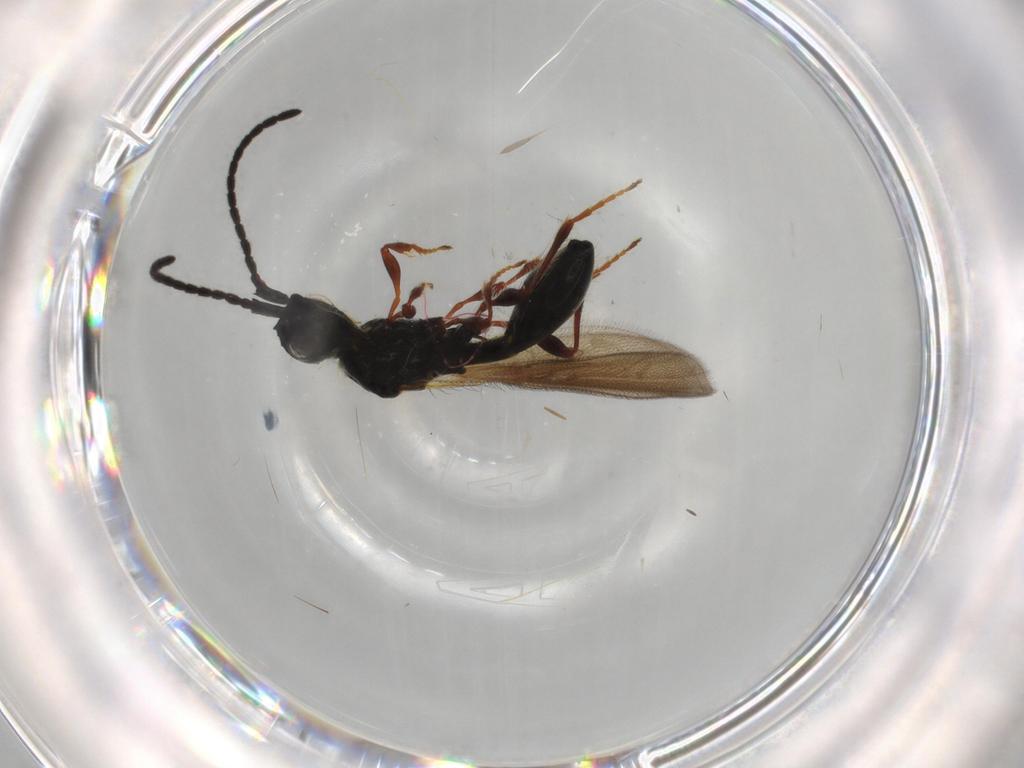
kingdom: Animalia
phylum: Arthropoda
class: Insecta
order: Hymenoptera
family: Diapriidae
